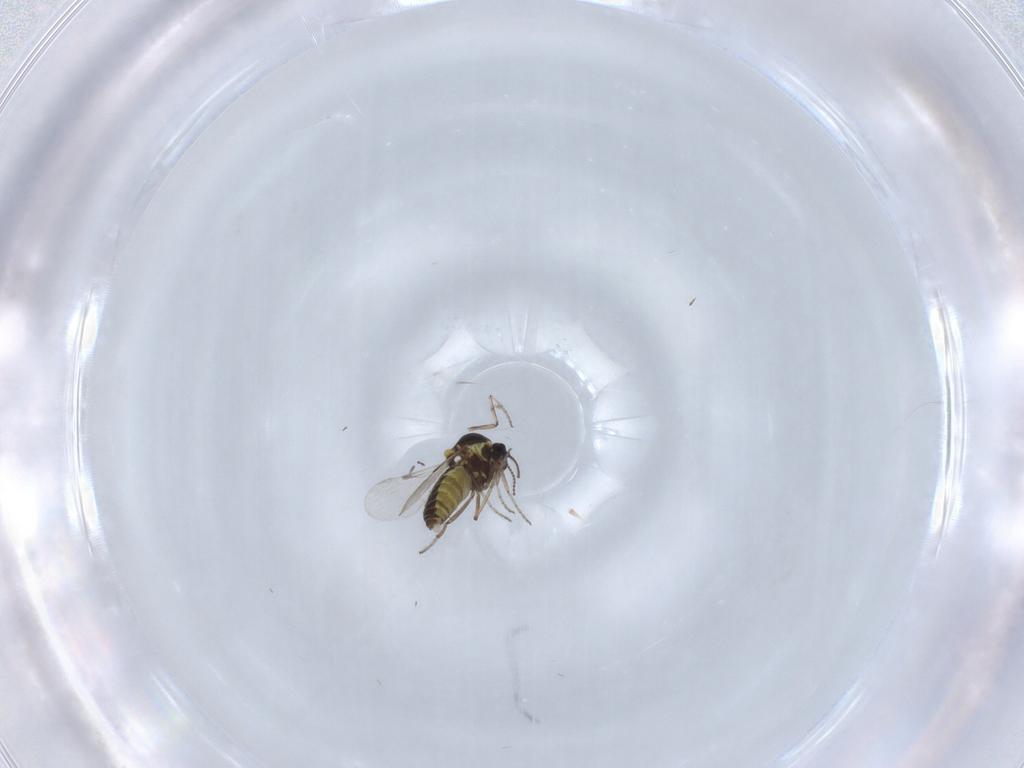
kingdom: Animalia
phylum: Arthropoda
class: Insecta
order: Diptera
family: Ceratopogonidae
